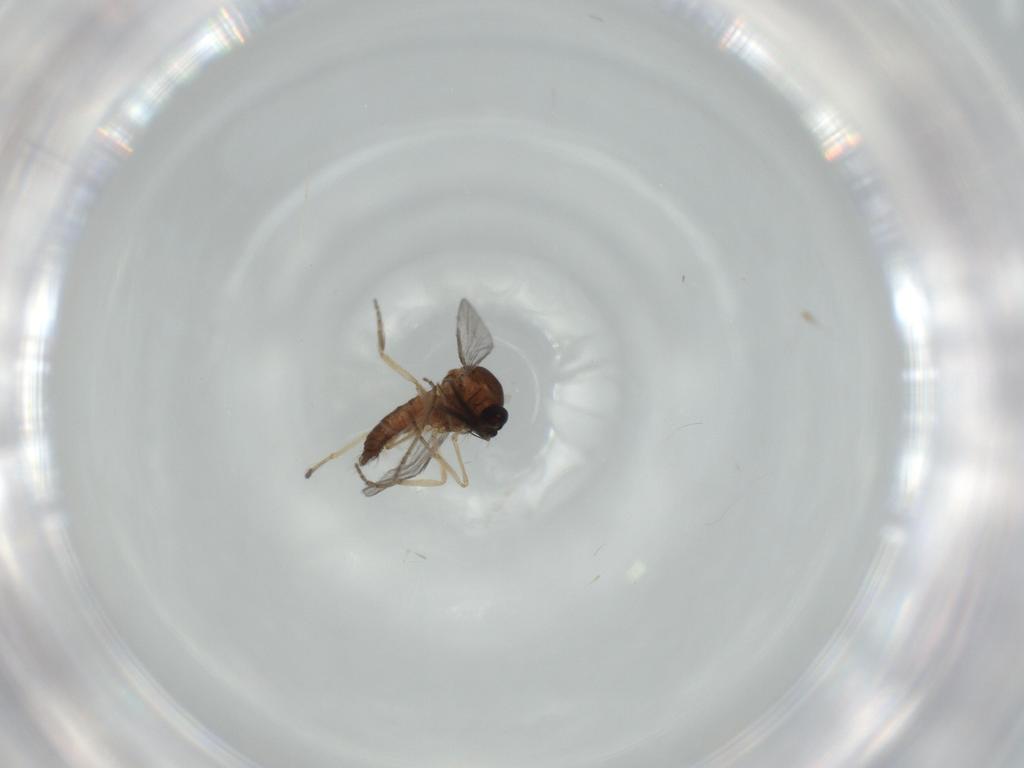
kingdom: Animalia
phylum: Arthropoda
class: Insecta
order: Diptera
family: Ceratopogonidae
